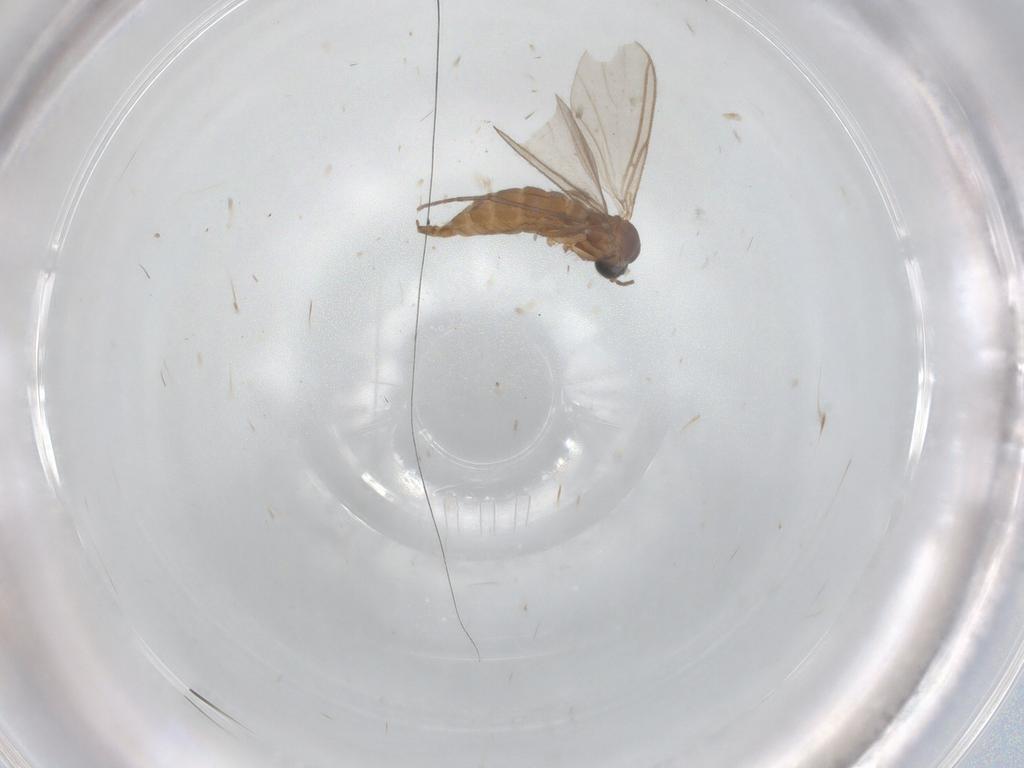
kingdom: Animalia
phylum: Arthropoda
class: Insecta
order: Diptera
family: Sciaridae
